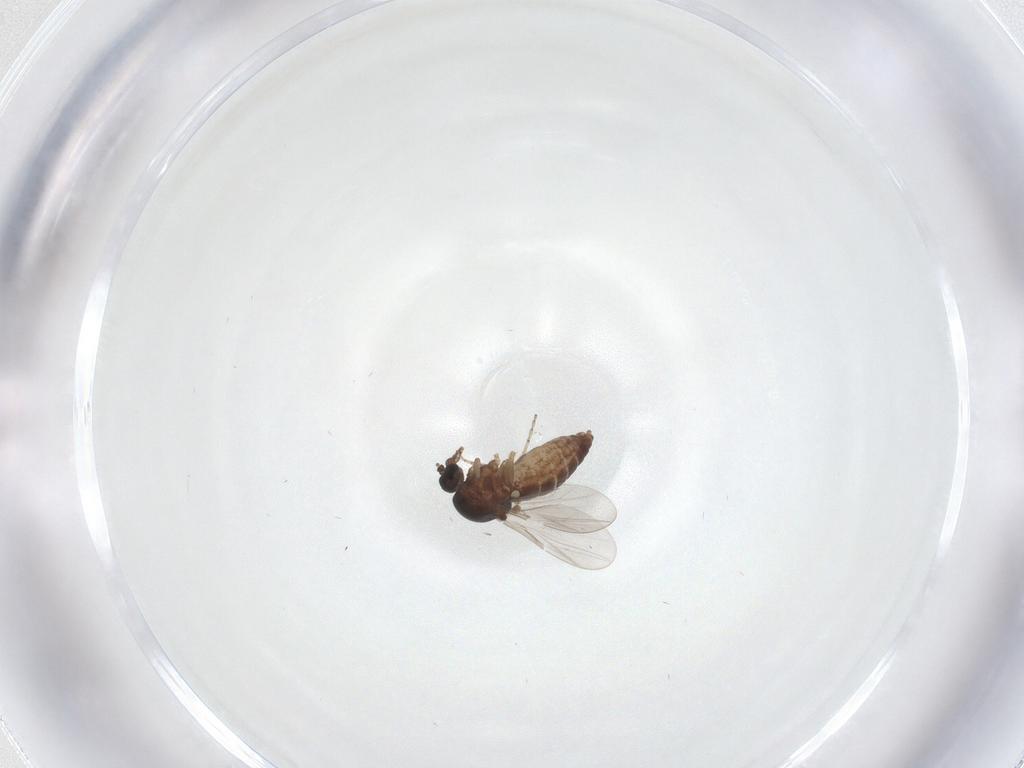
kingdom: Animalia
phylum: Arthropoda
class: Insecta
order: Diptera
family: Ceratopogonidae
